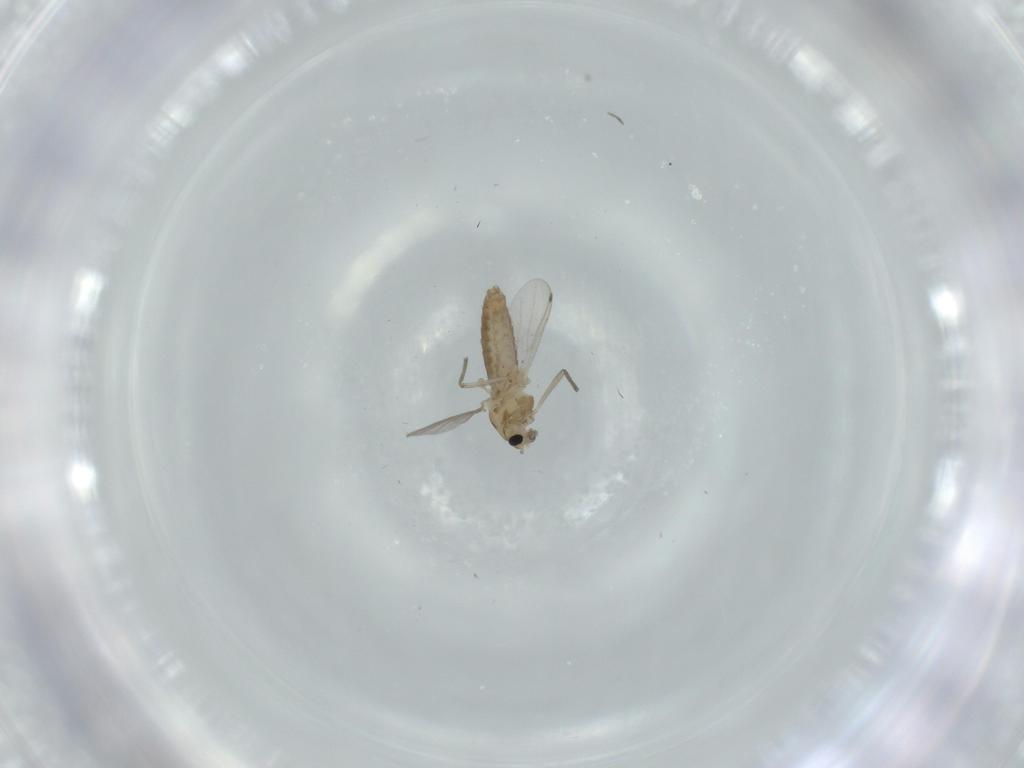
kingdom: Animalia
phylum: Arthropoda
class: Insecta
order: Diptera
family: Chironomidae
